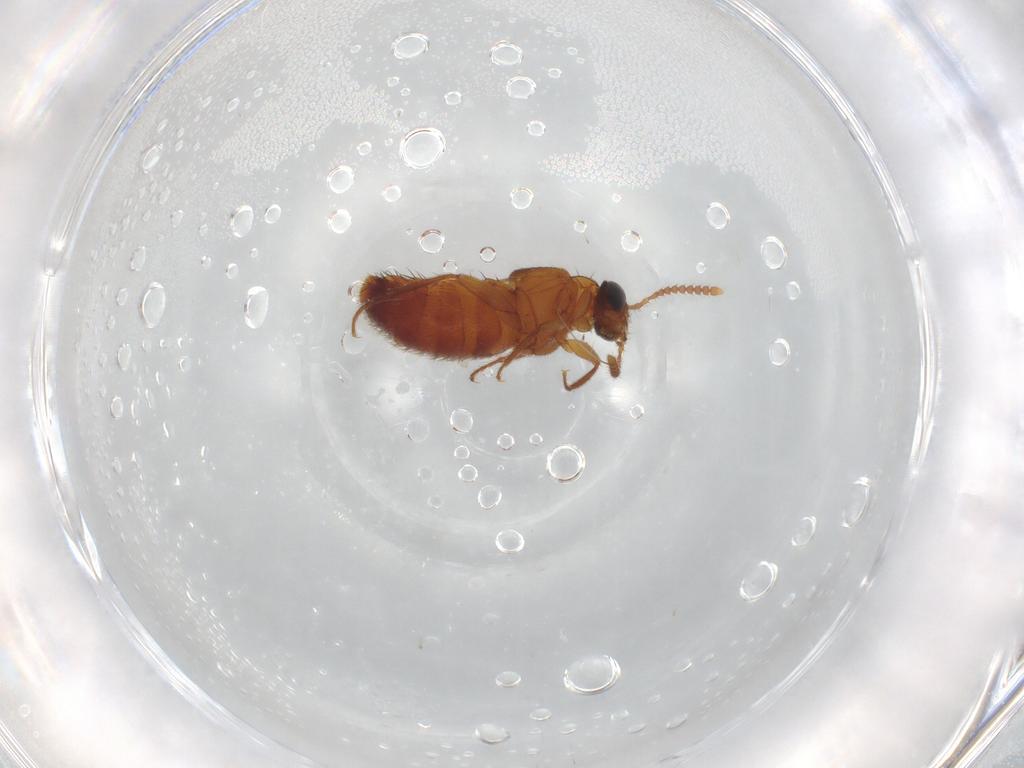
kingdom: Animalia
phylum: Arthropoda
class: Insecta
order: Coleoptera
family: Staphylinidae
